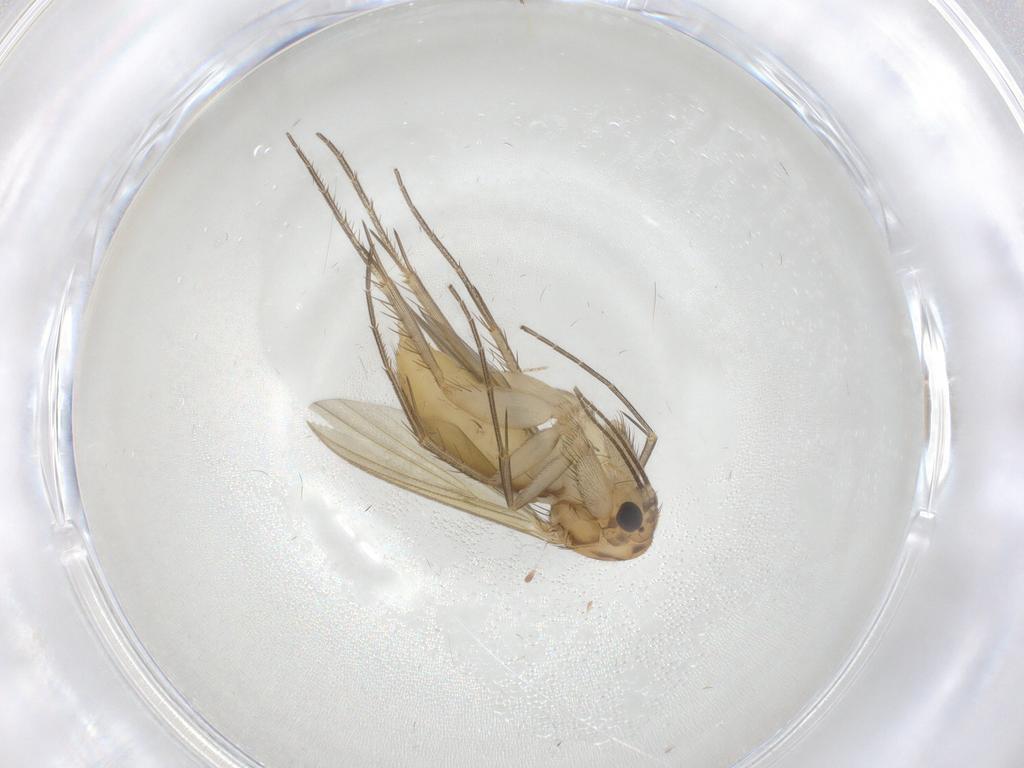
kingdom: Animalia
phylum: Arthropoda
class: Insecta
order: Diptera
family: Mycetophilidae
